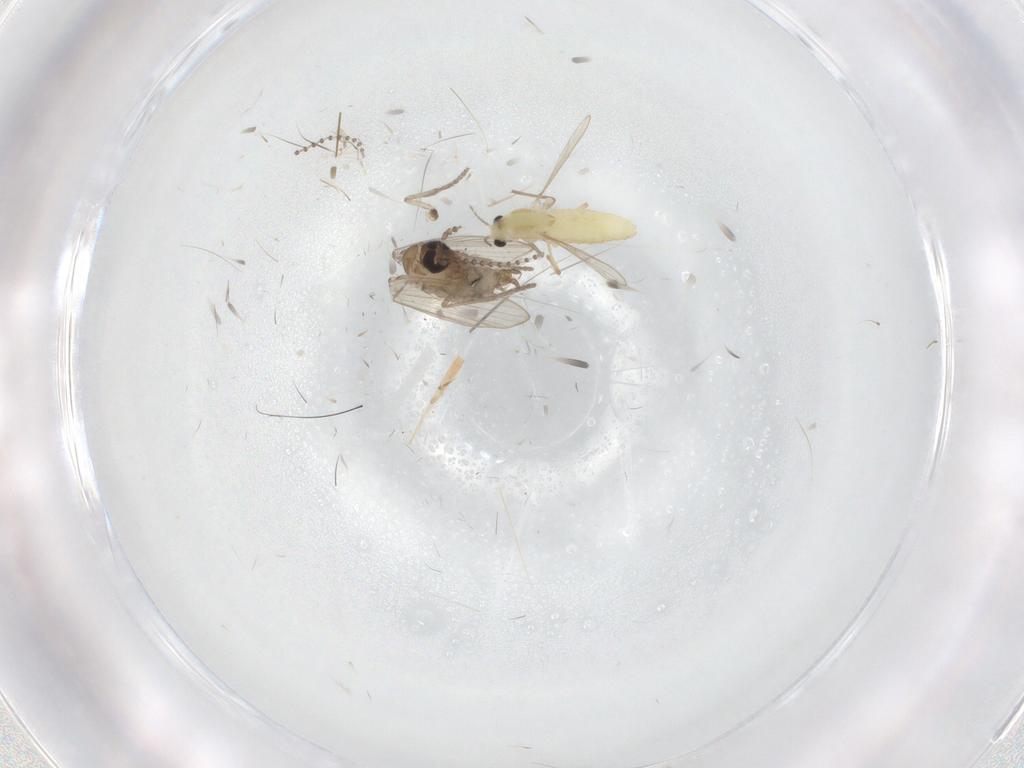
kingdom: Animalia
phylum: Arthropoda
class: Insecta
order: Diptera
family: Chironomidae
